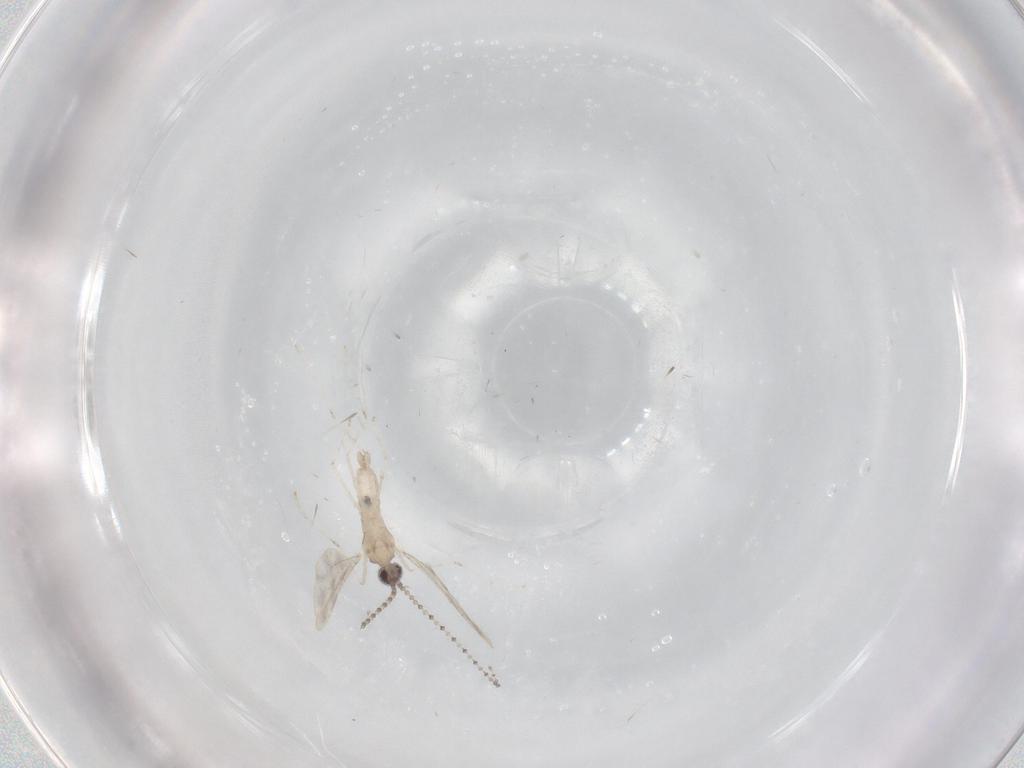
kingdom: Animalia
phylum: Arthropoda
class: Insecta
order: Diptera
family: Cecidomyiidae
